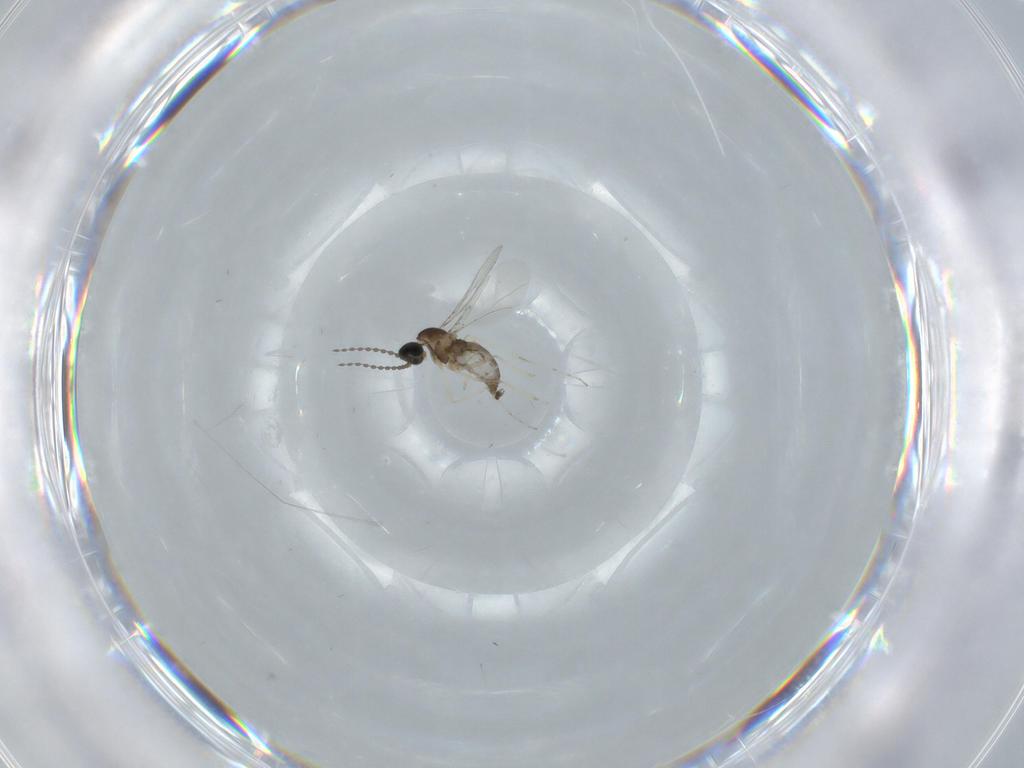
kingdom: Animalia
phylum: Arthropoda
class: Insecta
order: Diptera
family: Cecidomyiidae
